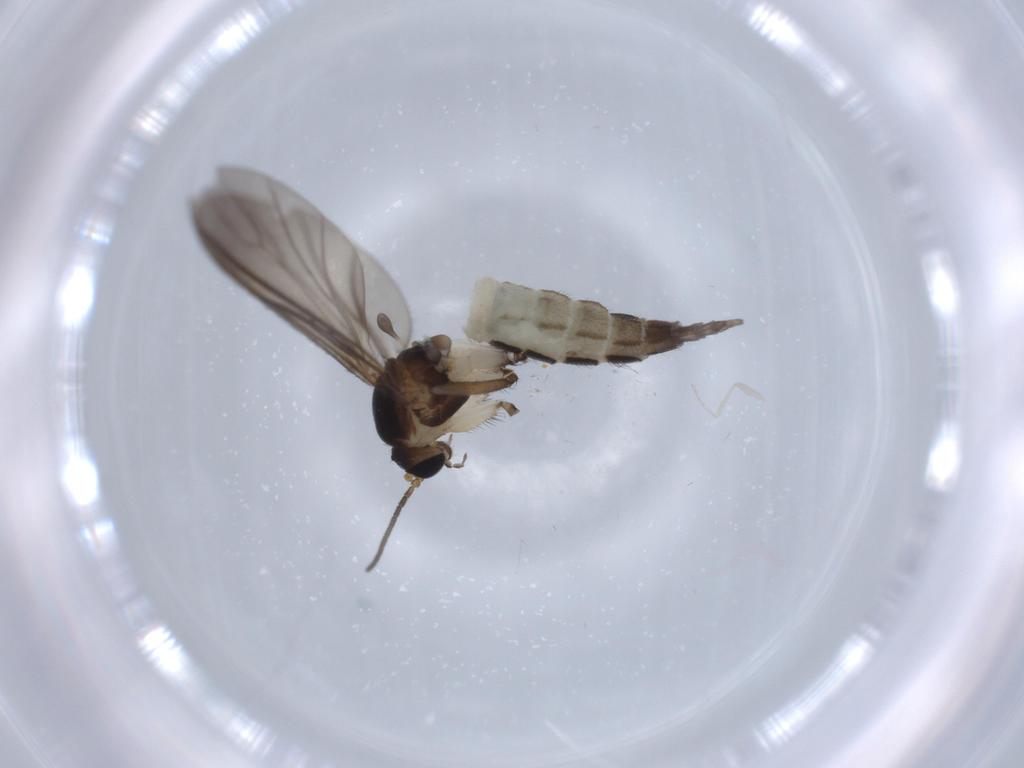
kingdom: Animalia
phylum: Arthropoda
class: Insecta
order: Diptera
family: Sciaridae
